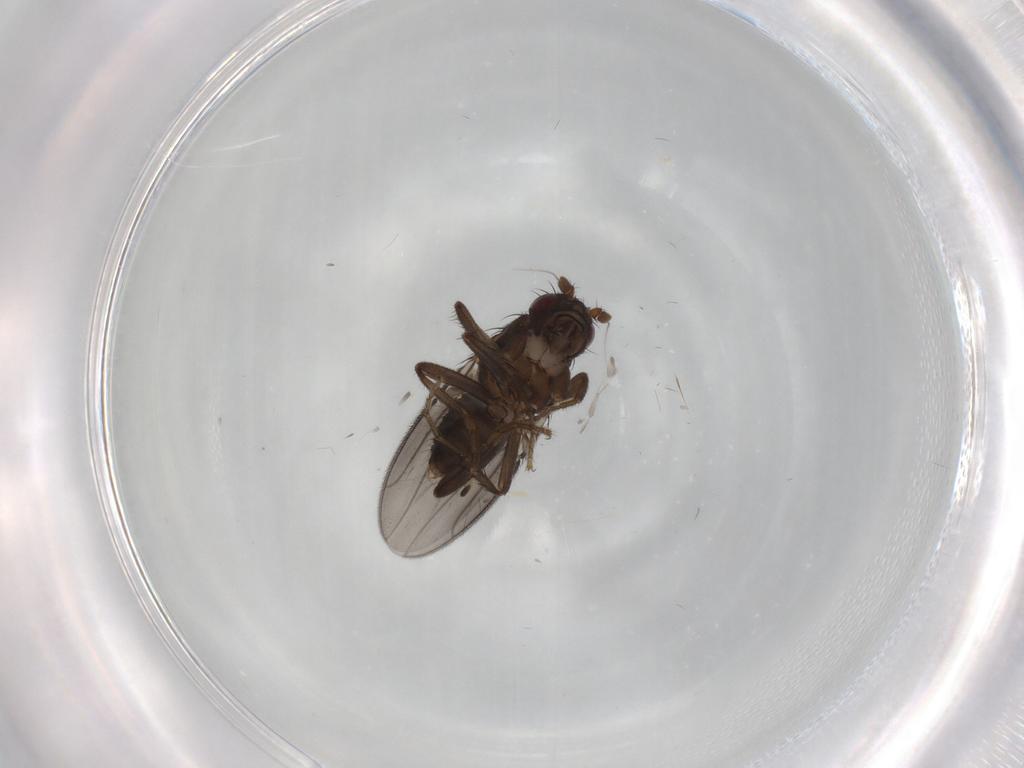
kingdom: Animalia
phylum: Arthropoda
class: Insecta
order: Diptera
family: Sphaeroceridae
